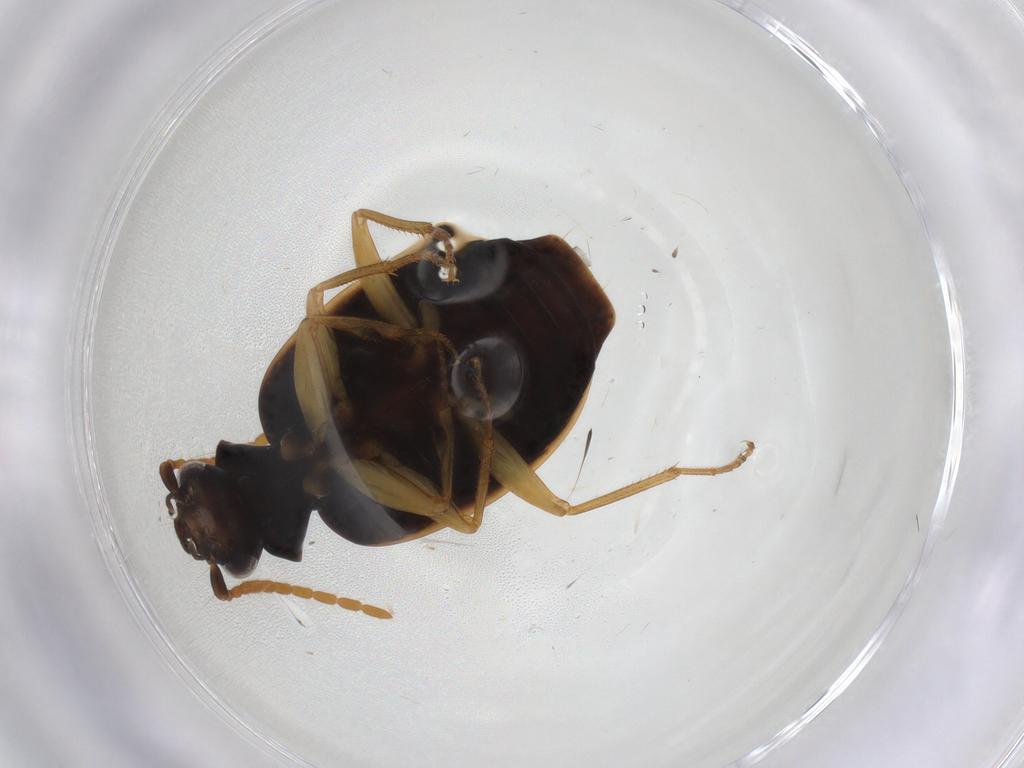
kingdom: Animalia
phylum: Arthropoda
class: Insecta
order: Coleoptera
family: Carabidae
